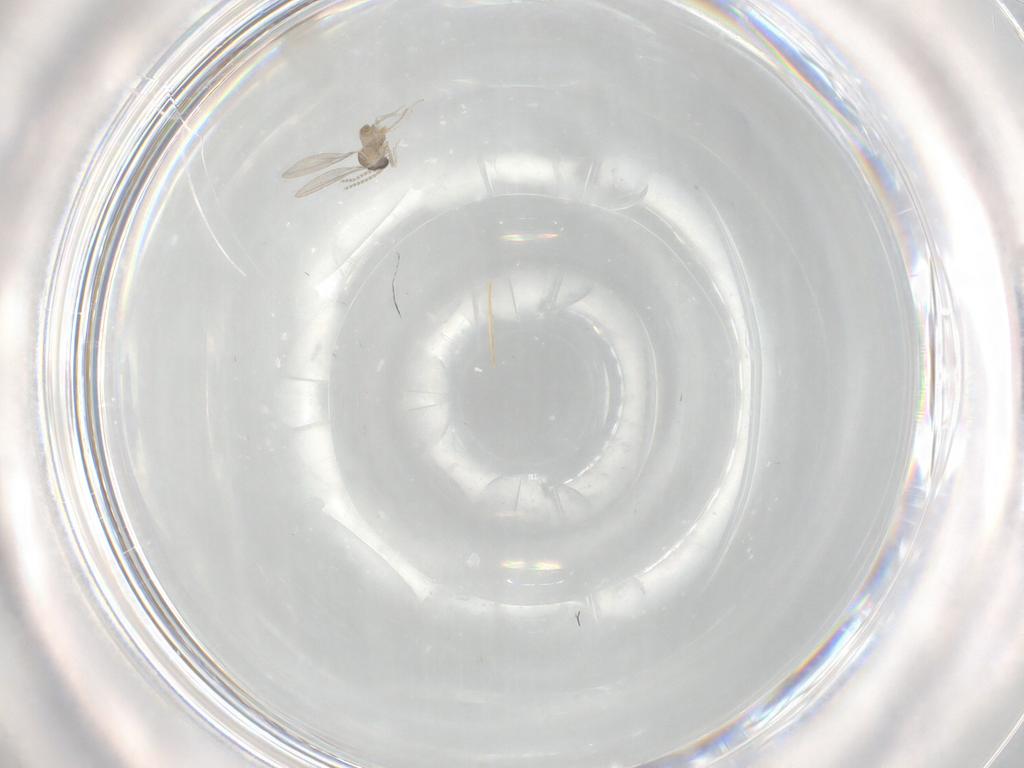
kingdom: Animalia
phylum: Arthropoda
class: Insecta
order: Diptera
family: Cecidomyiidae
